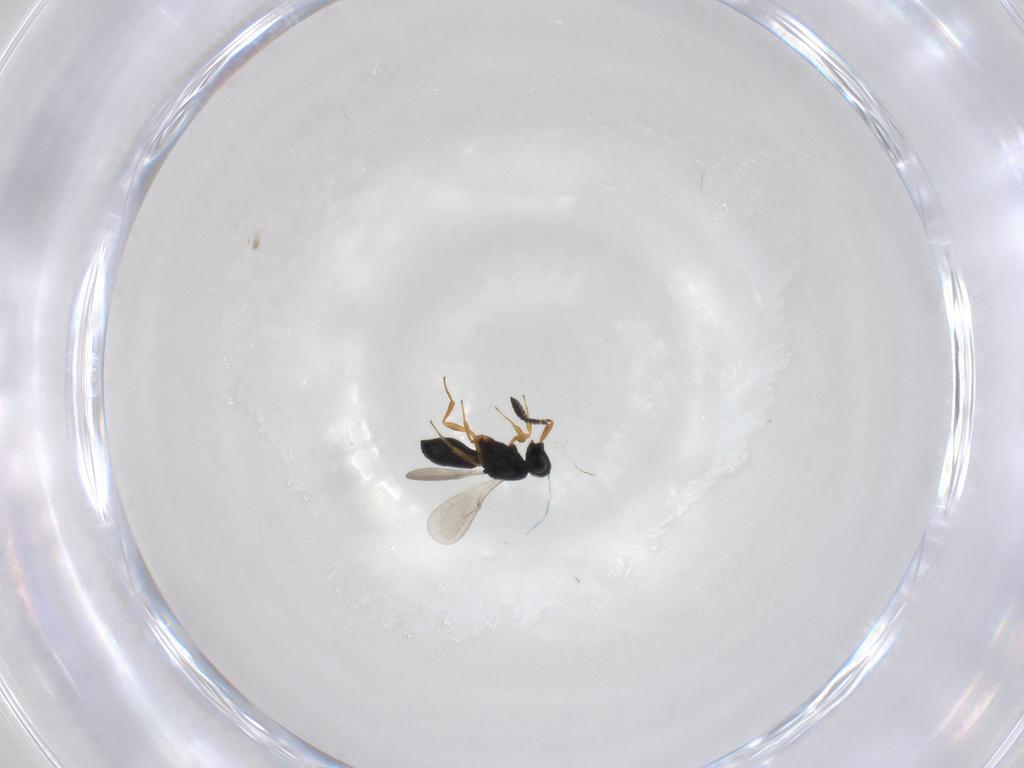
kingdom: Animalia
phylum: Arthropoda
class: Insecta
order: Hymenoptera
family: Scelionidae
